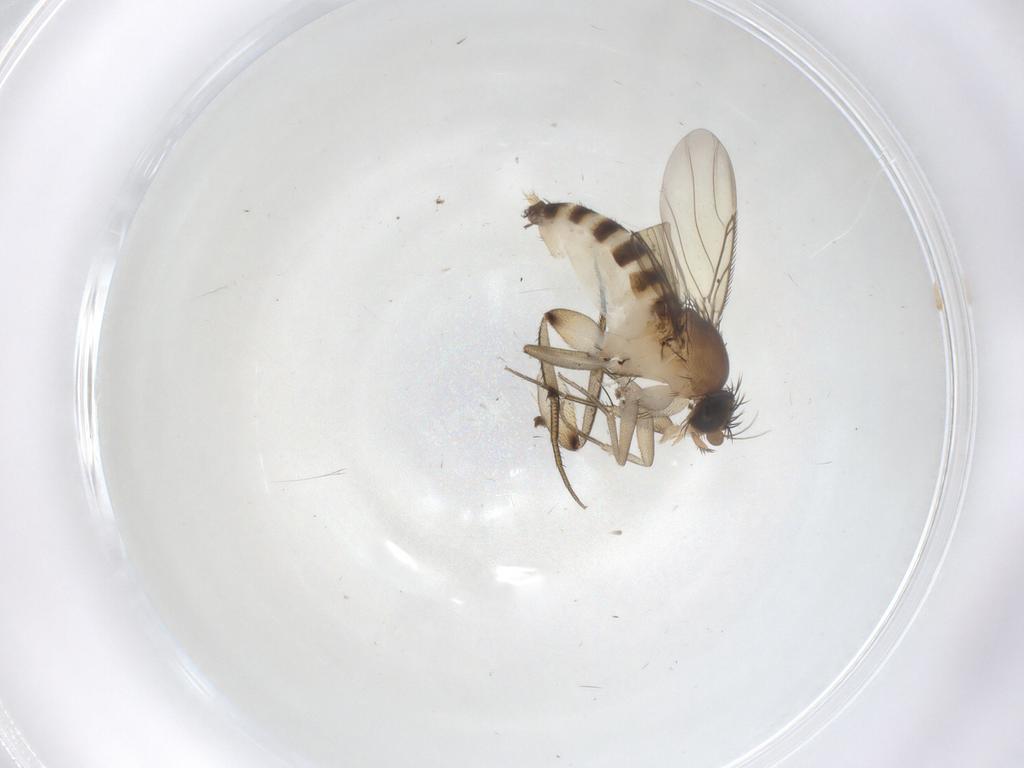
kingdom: Animalia
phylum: Arthropoda
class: Insecta
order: Diptera
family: Phoridae
